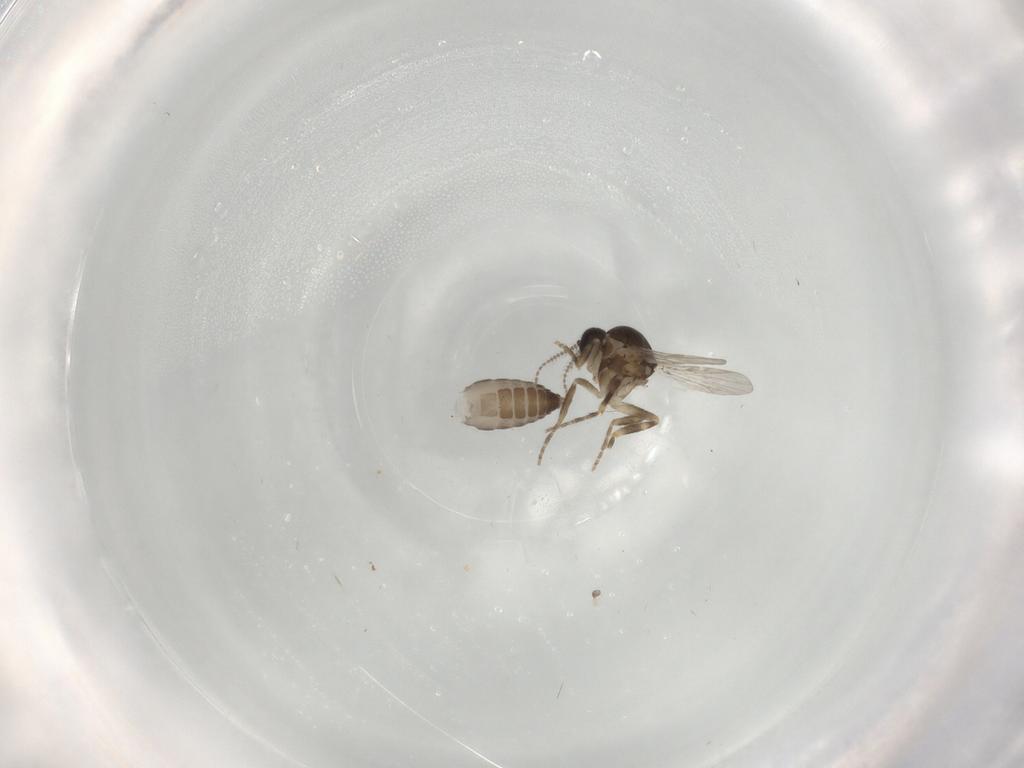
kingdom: Animalia
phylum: Arthropoda
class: Insecta
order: Diptera
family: Ceratopogonidae
